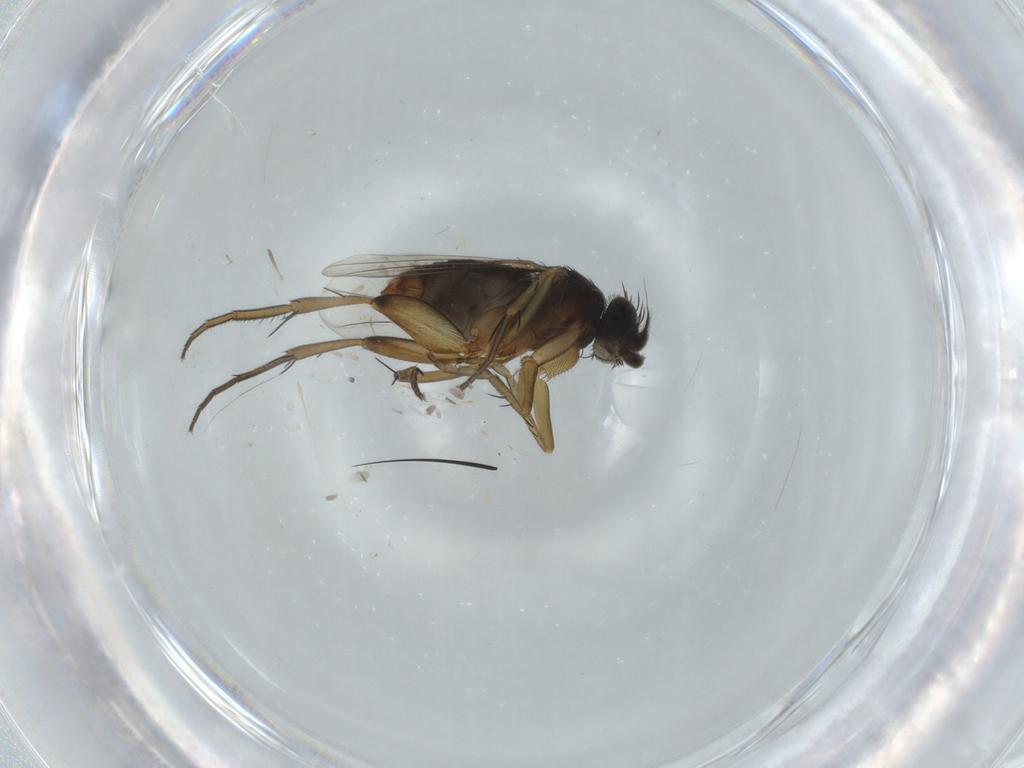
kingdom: Animalia
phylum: Arthropoda
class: Insecta
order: Diptera
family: Phoridae
